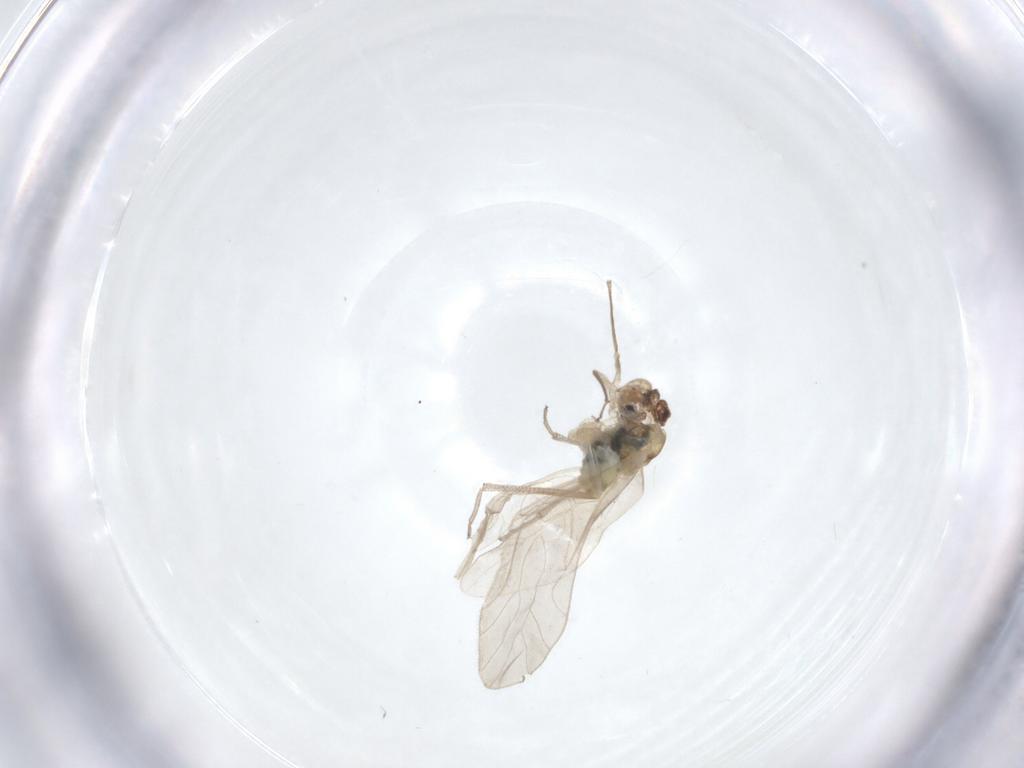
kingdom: Animalia
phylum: Arthropoda
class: Insecta
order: Psocodea
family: Caeciliusidae
